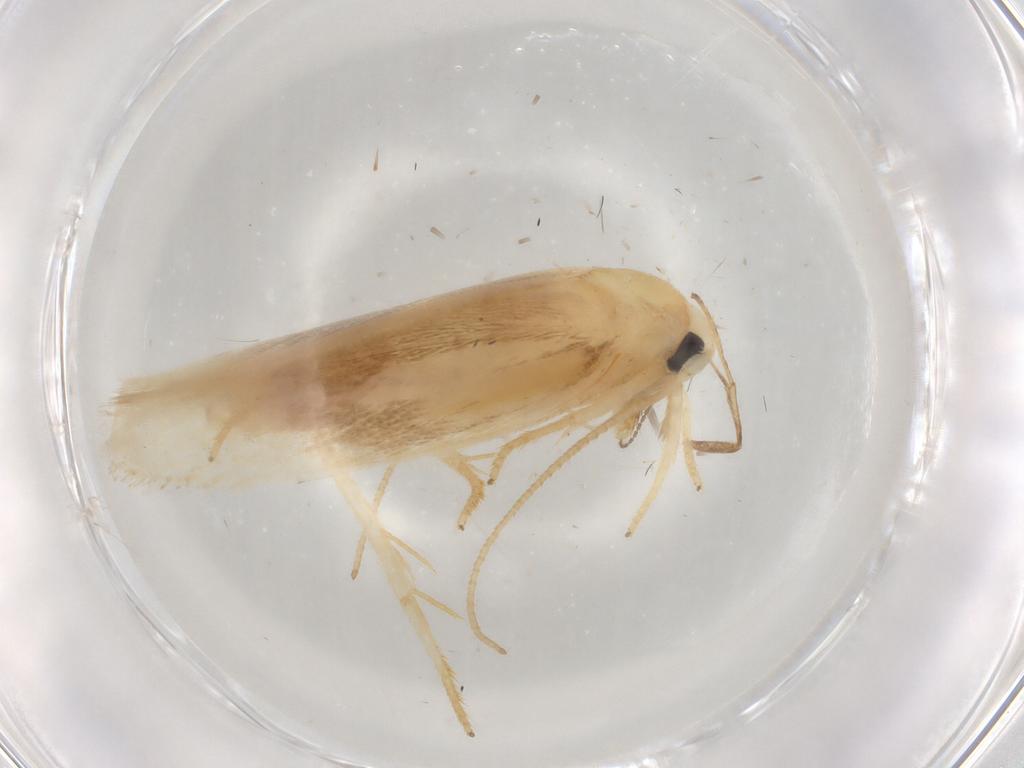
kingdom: Animalia
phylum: Arthropoda
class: Insecta
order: Lepidoptera
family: Geometridae
